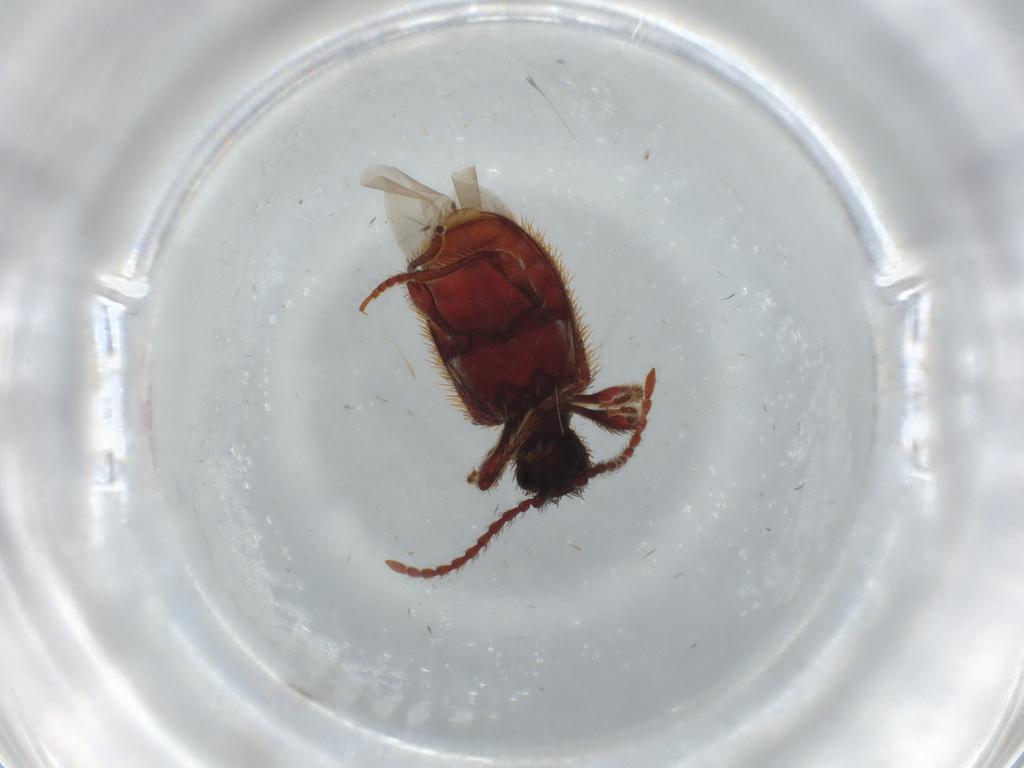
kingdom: Animalia
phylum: Arthropoda
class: Insecta
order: Coleoptera
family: Ptinidae
